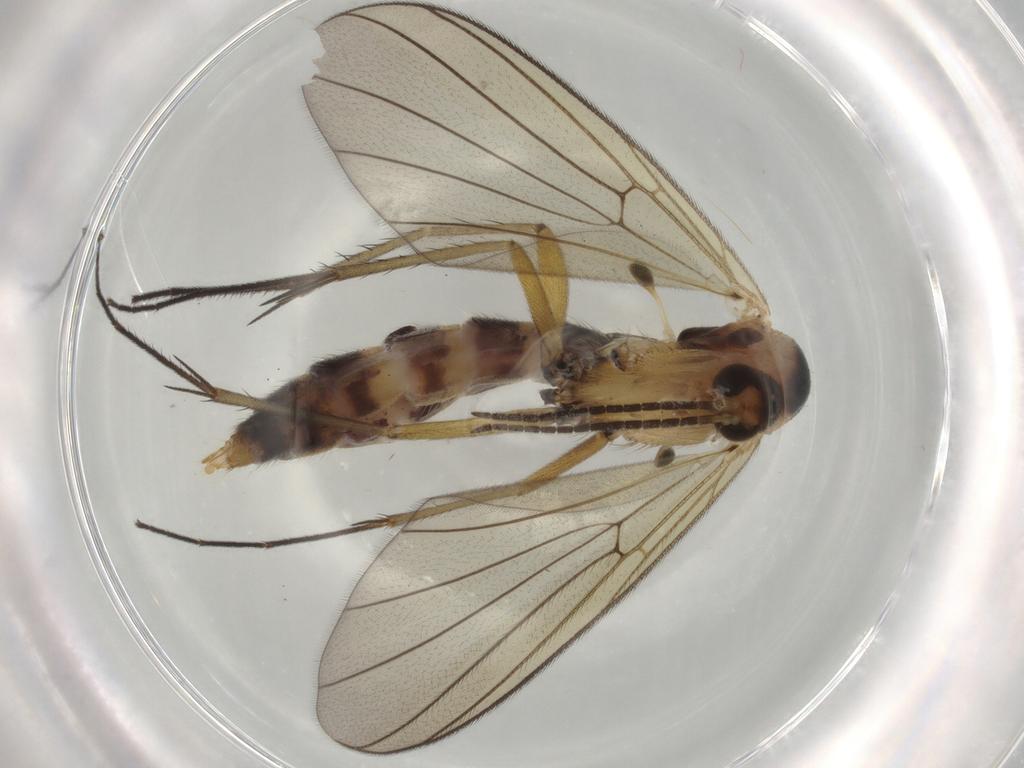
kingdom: Animalia
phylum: Arthropoda
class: Insecta
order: Diptera
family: Mycetophilidae
